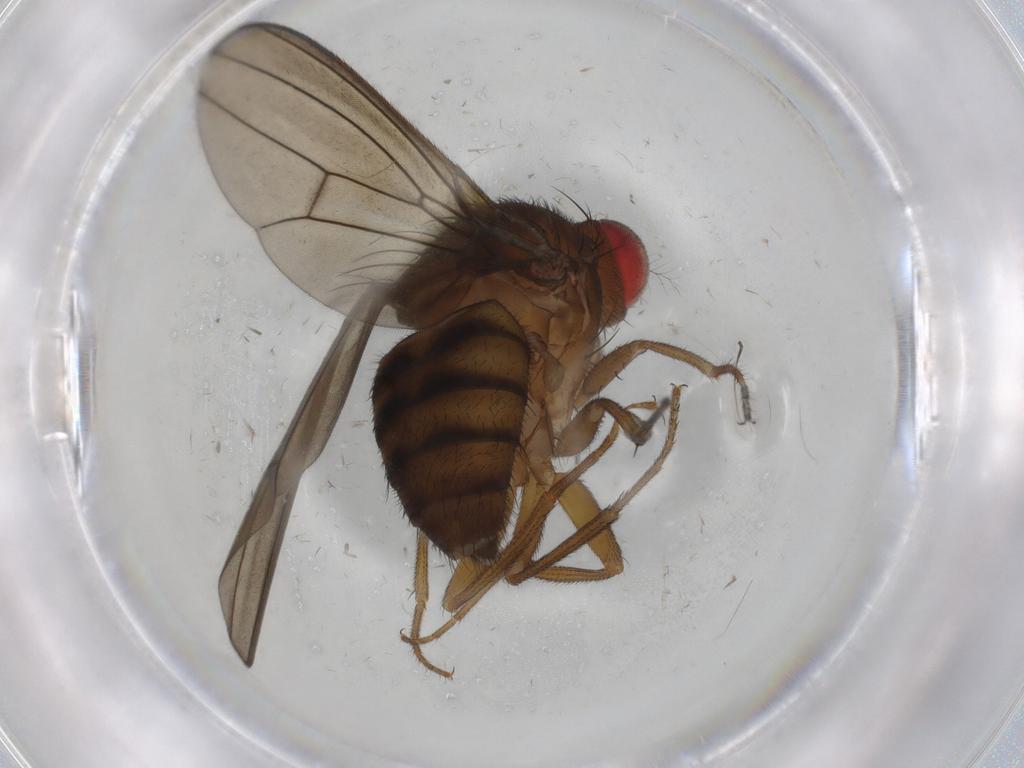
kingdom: Animalia
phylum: Arthropoda
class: Insecta
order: Diptera
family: Drosophilidae
